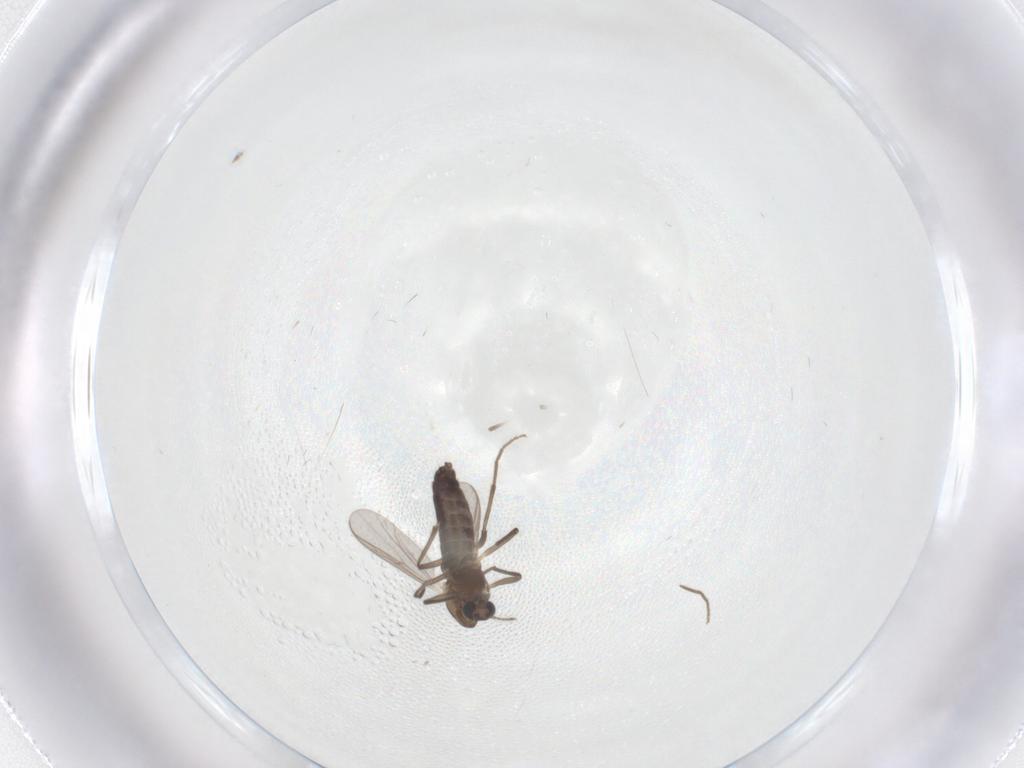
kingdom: Animalia
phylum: Arthropoda
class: Insecta
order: Diptera
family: Chironomidae
